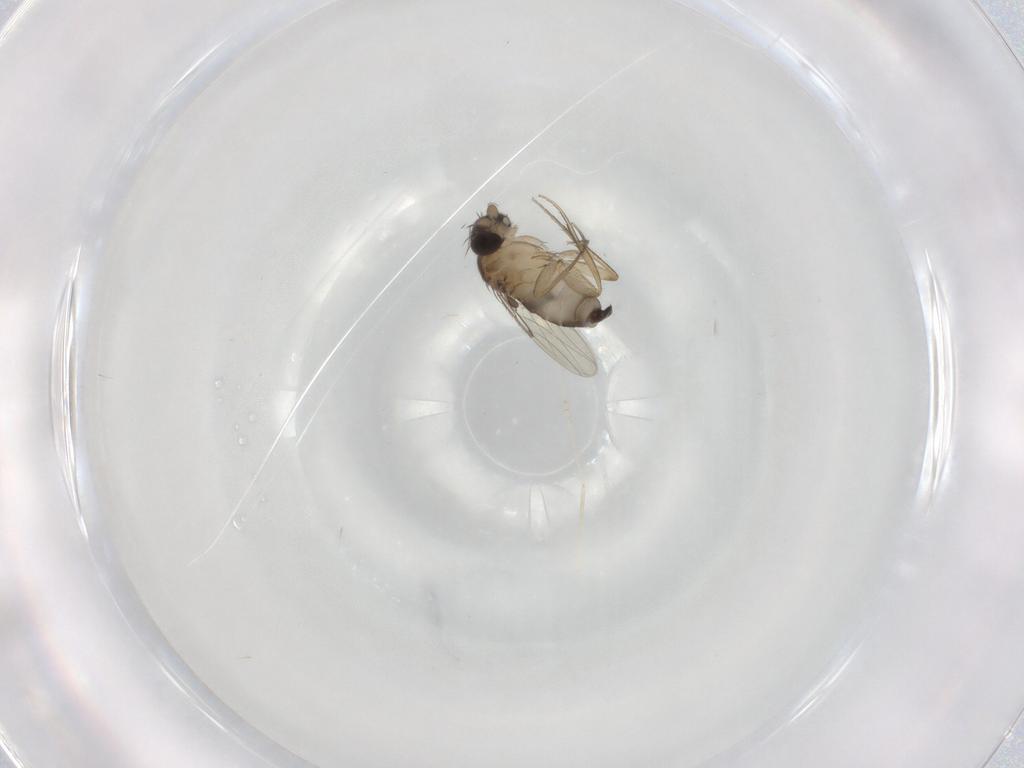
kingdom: Animalia
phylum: Arthropoda
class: Insecta
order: Diptera
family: Phoridae
